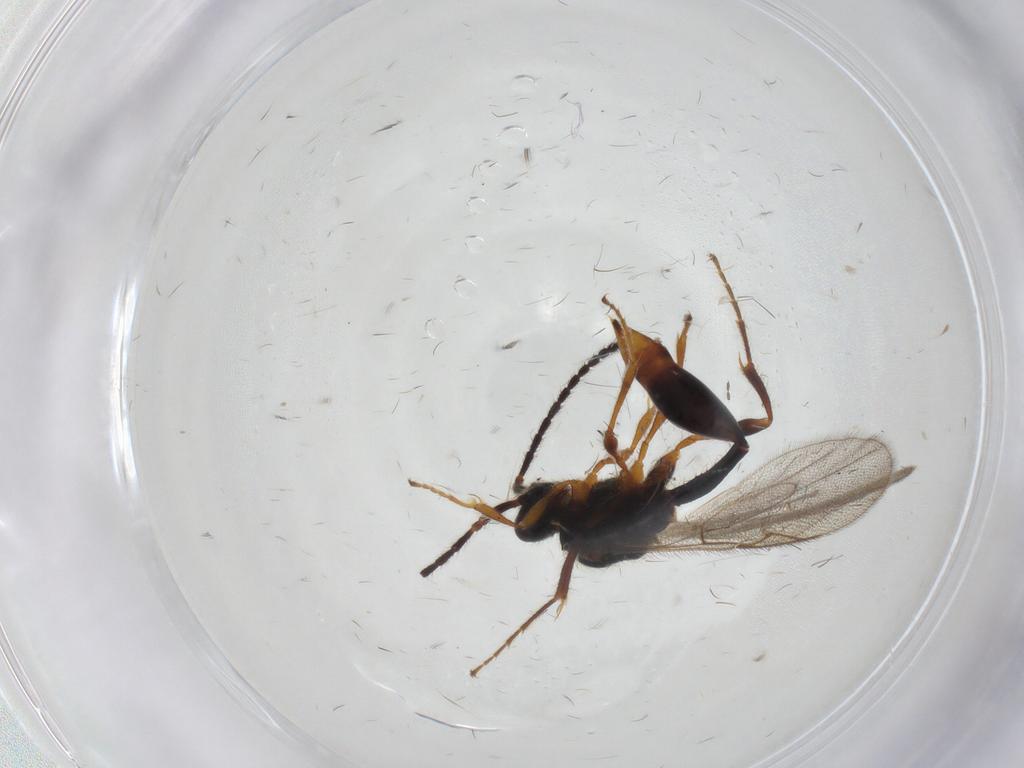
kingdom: Animalia
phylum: Arthropoda
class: Insecta
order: Hymenoptera
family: Diapriidae
